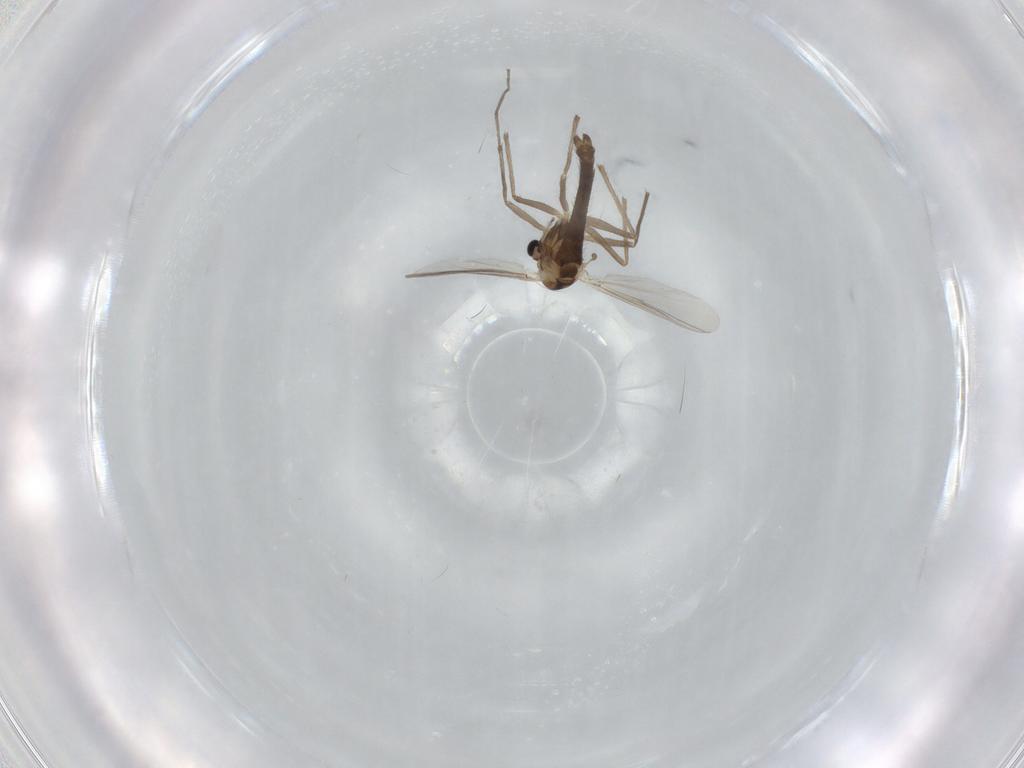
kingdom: Animalia
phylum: Arthropoda
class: Insecta
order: Diptera
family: Chironomidae
